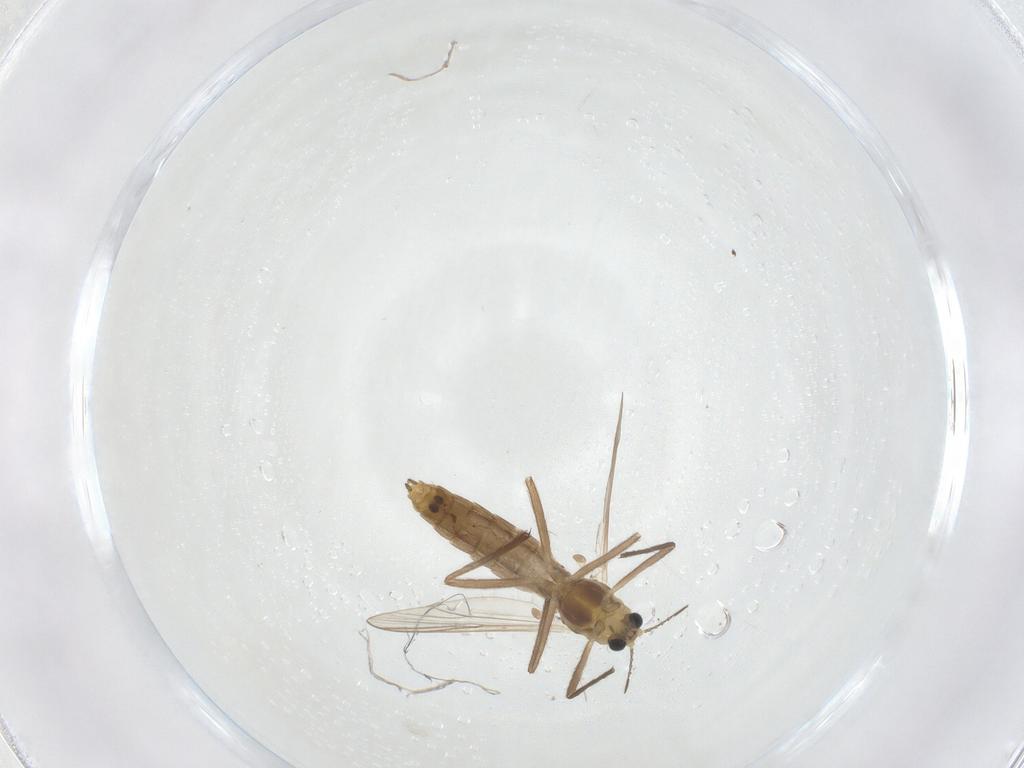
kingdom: Animalia
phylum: Arthropoda
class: Insecta
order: Diptera
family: Chironomidae
